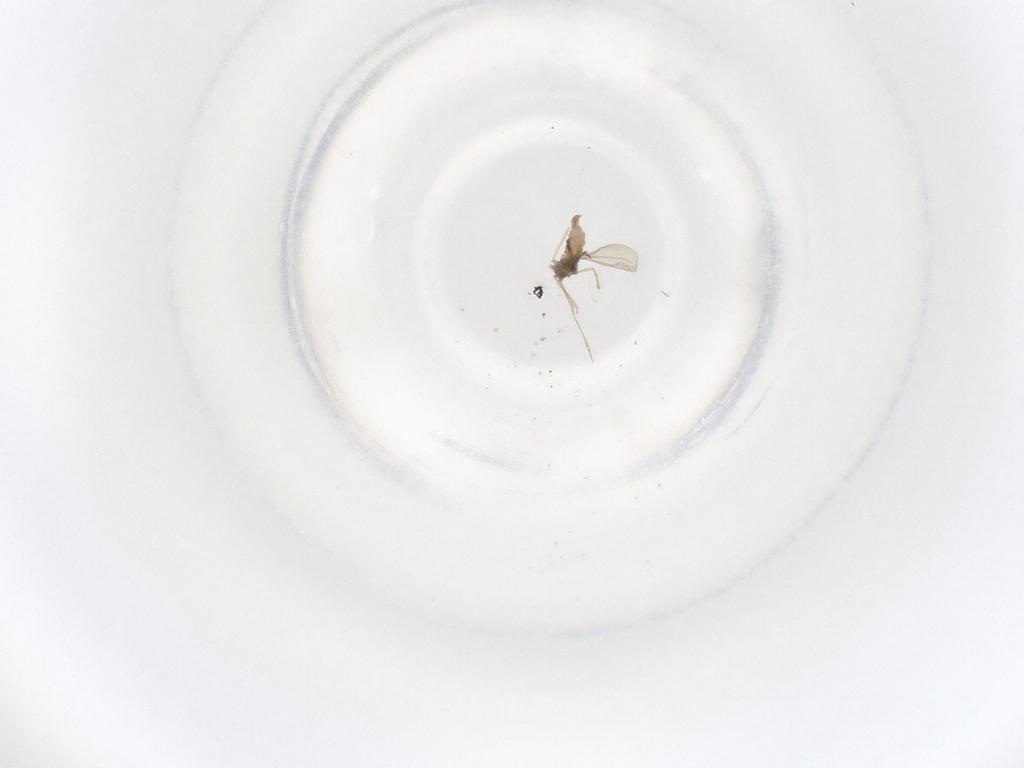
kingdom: Animalia
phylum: Arthropoda
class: Insecta
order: Diptera
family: Cecidomyiidae
